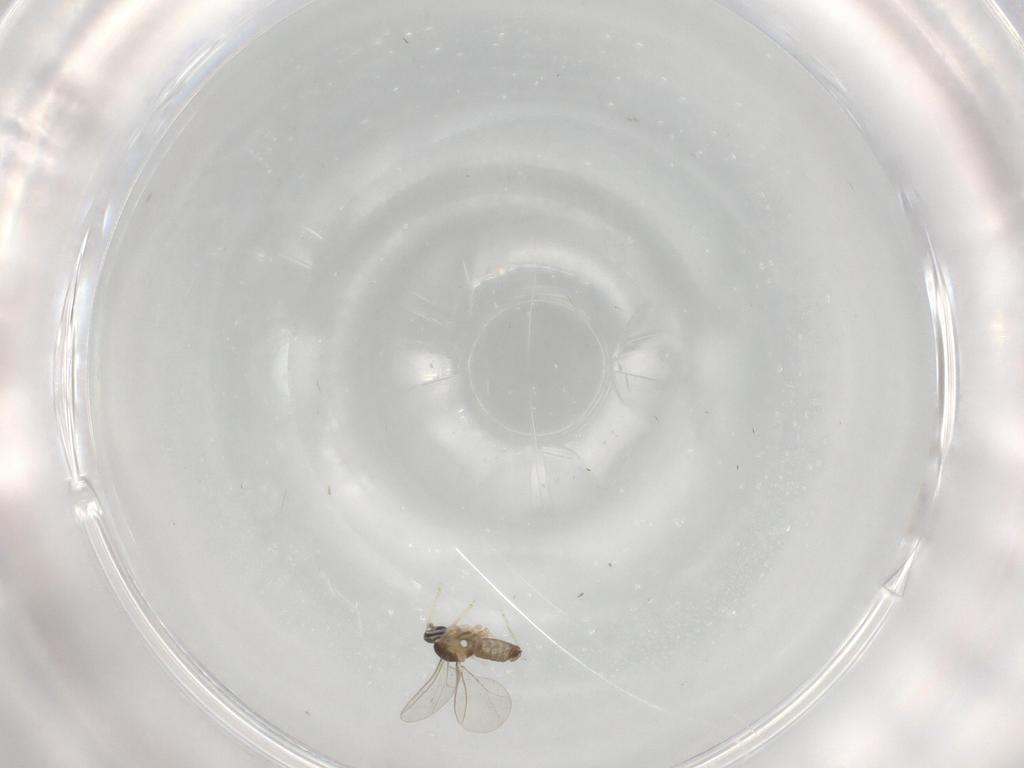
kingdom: Animalia
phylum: Arthropoda
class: Insecta
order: Diptera
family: Cecidomyiidae
